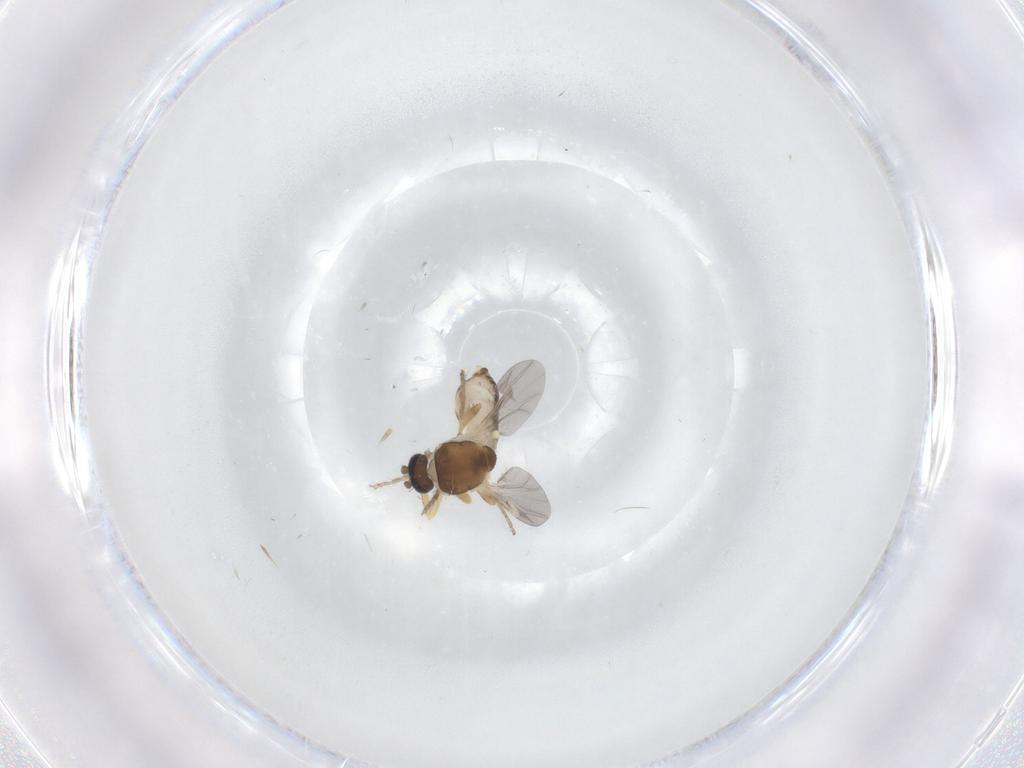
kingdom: Animalia
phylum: Arthropoda
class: Insecta
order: Diptera
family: Ceratopogonidae
